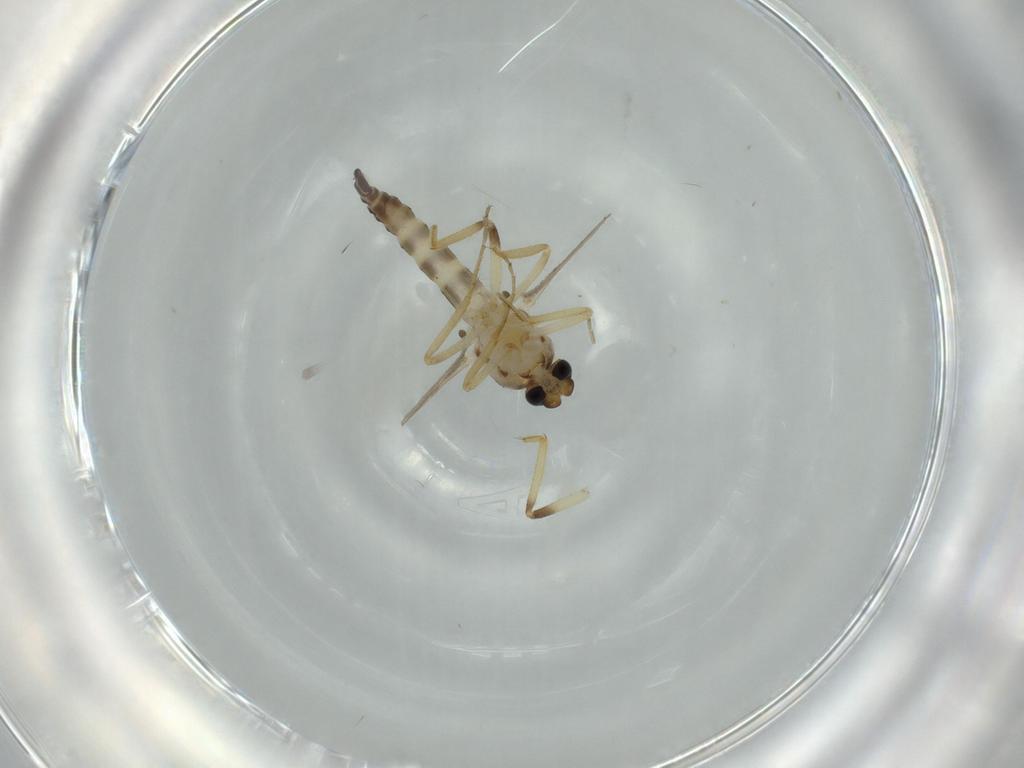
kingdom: Animalia
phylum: Arthropoda
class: Insecta
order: Diptera
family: Ceratopogonidae
